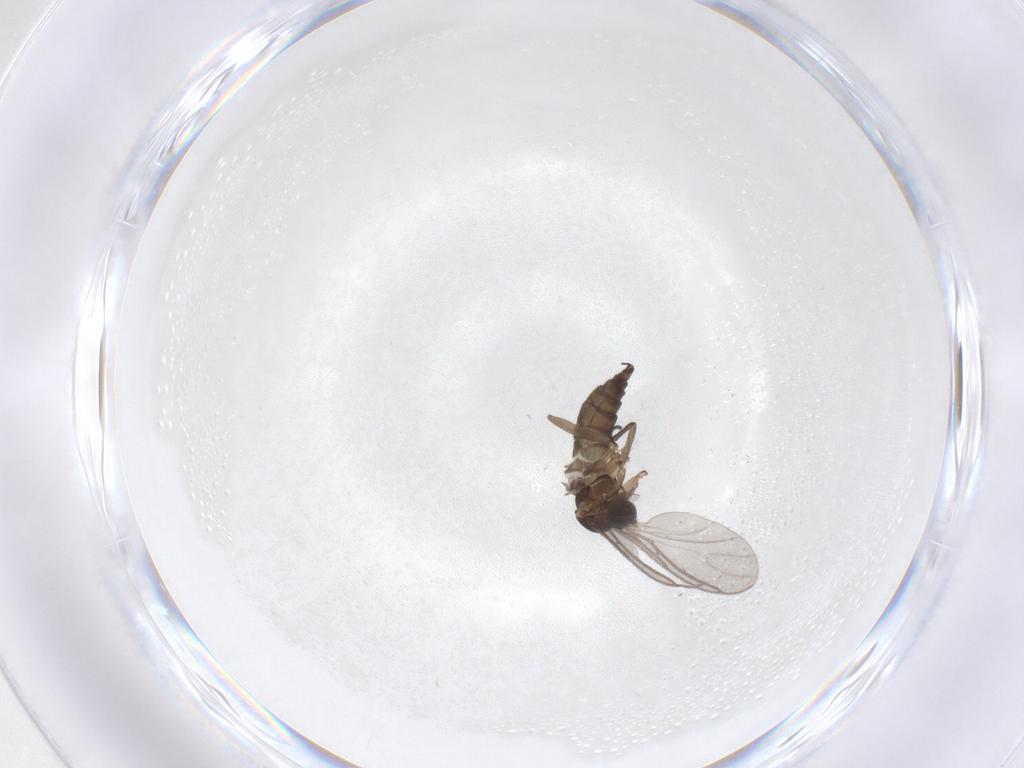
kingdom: Animalia
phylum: Arthropoda
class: Insecta
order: Diptera
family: Sciaridae
